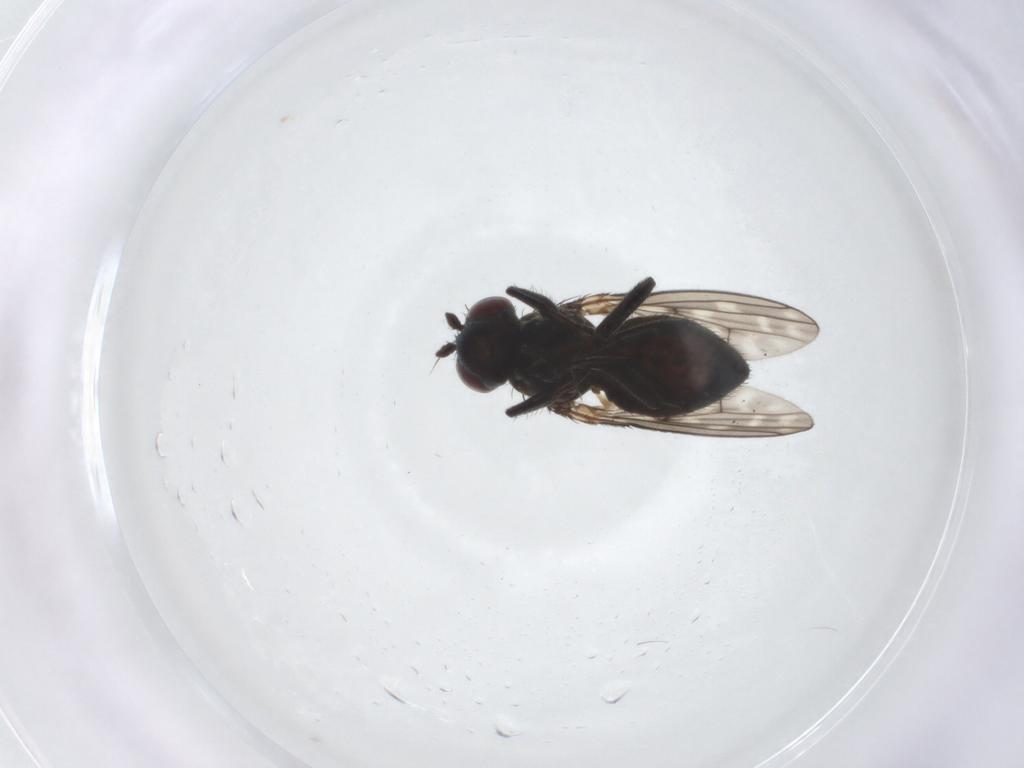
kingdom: Animalia
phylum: Arthropoda
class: Insecta
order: Diptera
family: Ephydridae
